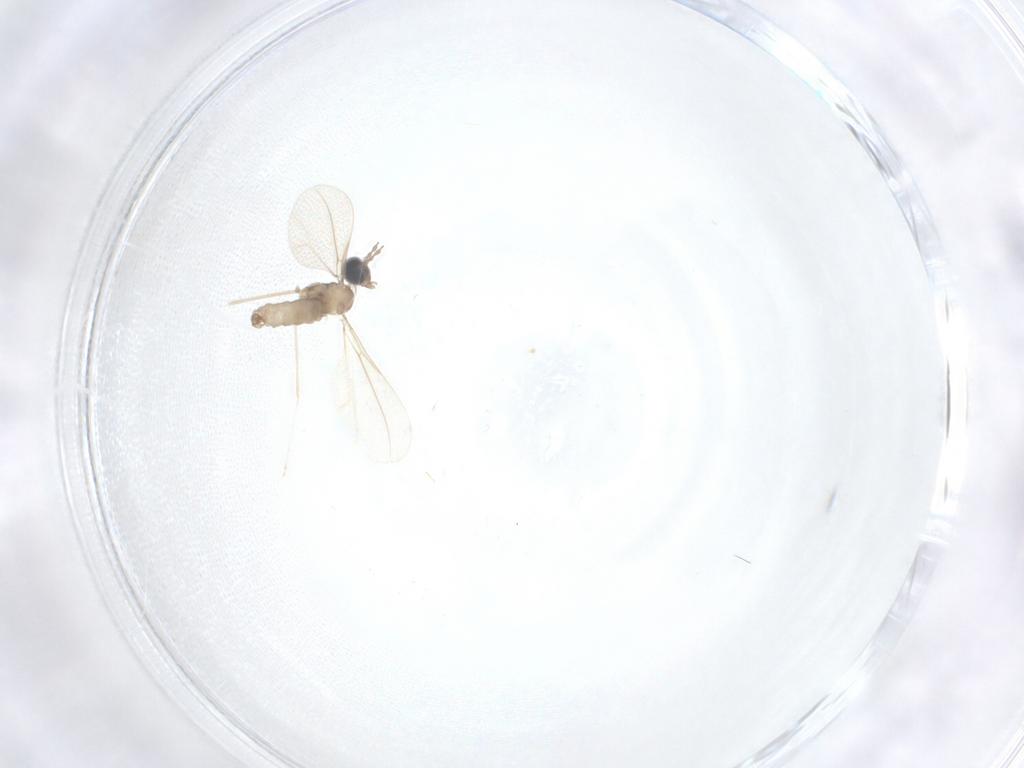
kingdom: Animalia
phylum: Arthropoda
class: Insecta
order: Diptera
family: Cecidomyiidae
